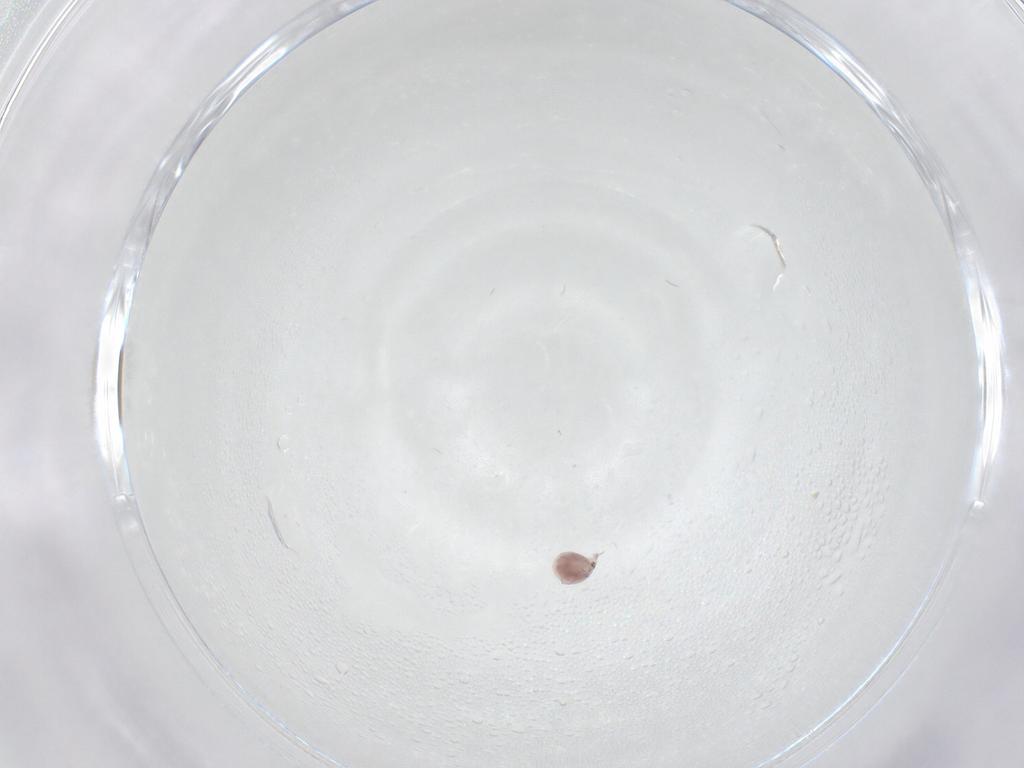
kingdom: Animalia
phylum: Arthropoda
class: Arachnida
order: Trombidiformes
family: Pionidae
